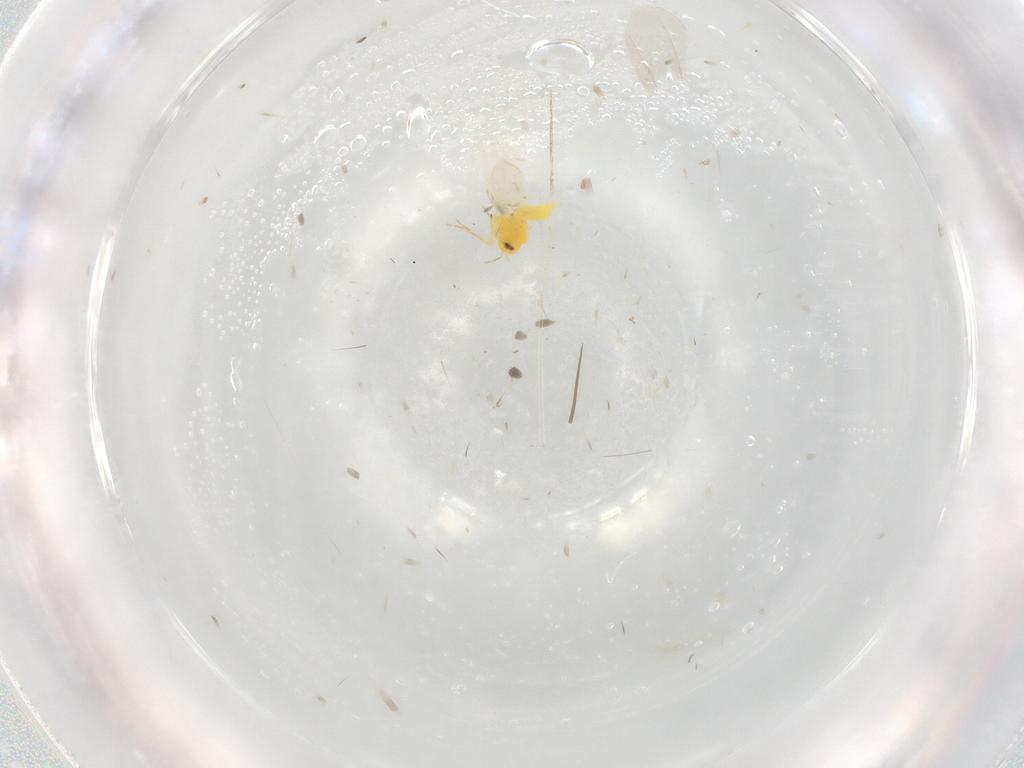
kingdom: Animalia
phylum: Arthropoda
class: Insecta
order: Hemiptera
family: Aleyrodidae
